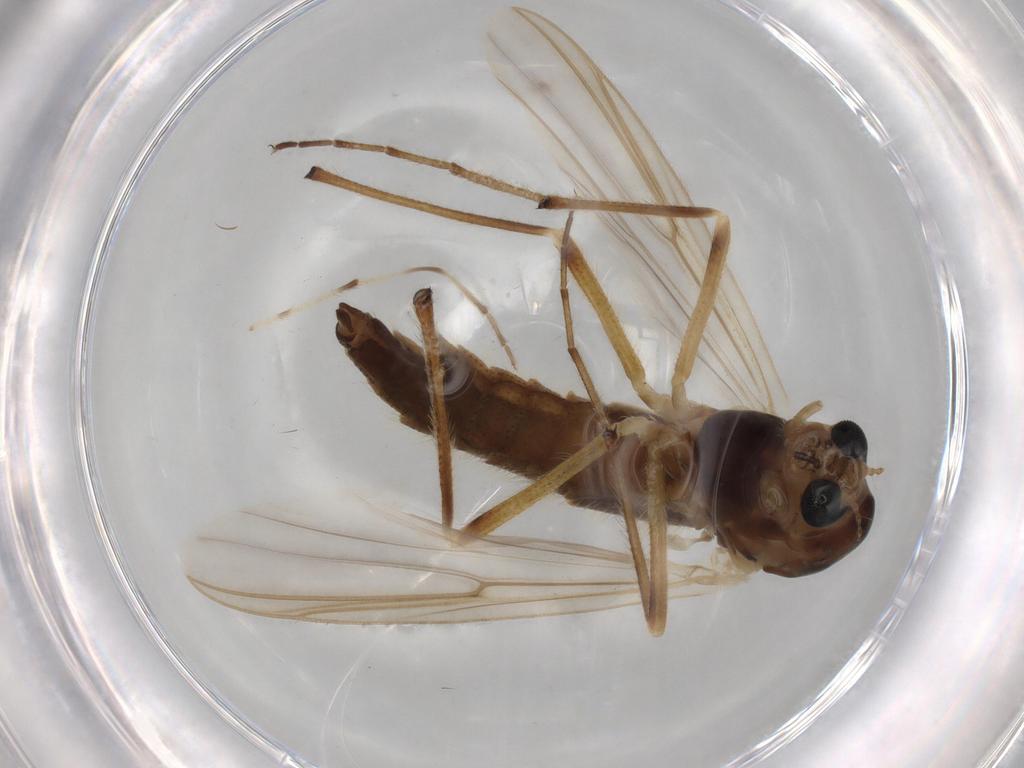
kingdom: Animalia
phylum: Arthropoda
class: Insecta
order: Diptera
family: Chironomidae
